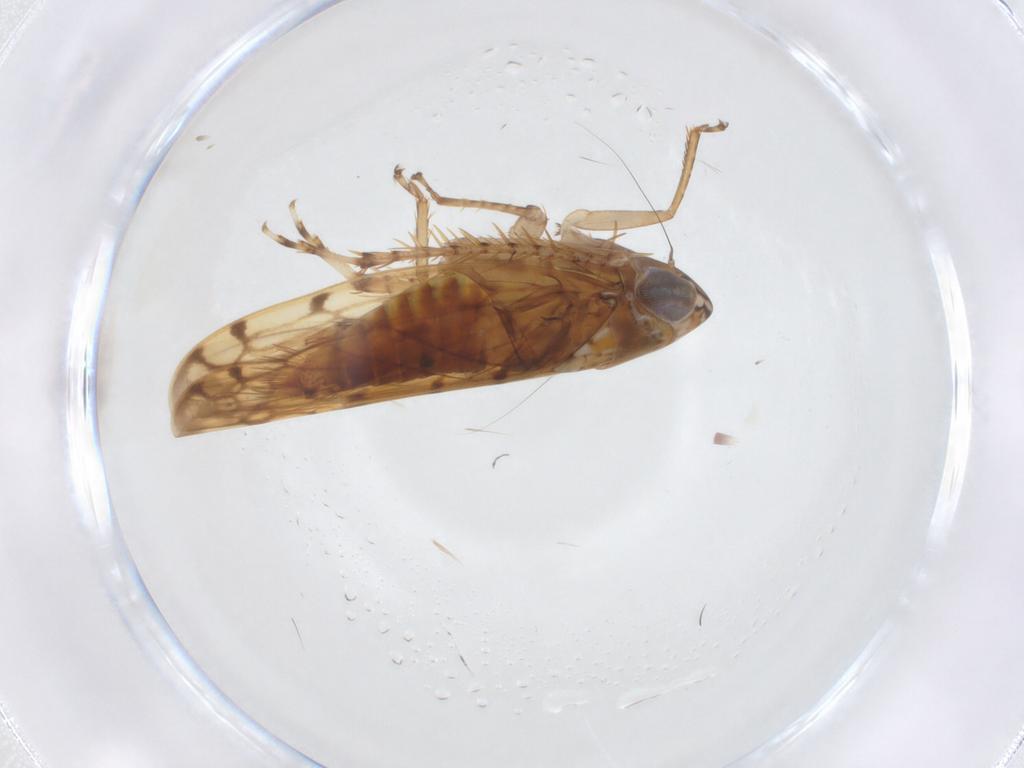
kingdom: Animalia
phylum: Arthropoda
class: Insecta
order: Hemiptera
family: Cicadellidae
